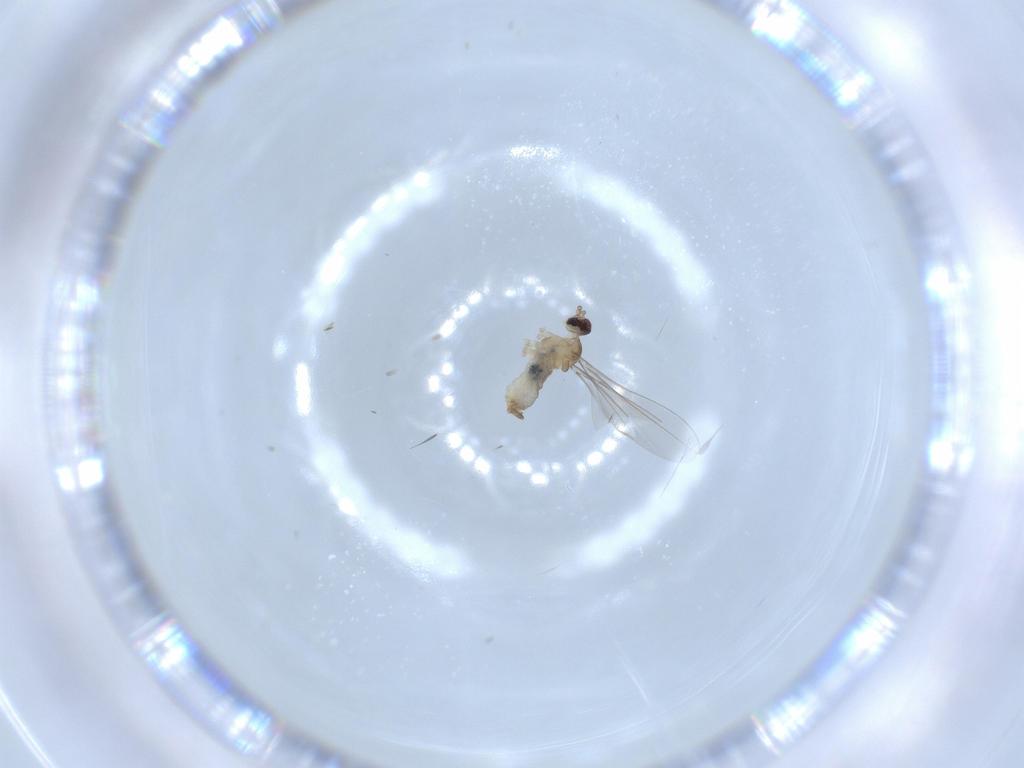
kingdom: Animalia
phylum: Arthropoda
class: Insecta
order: Diptera
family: Cecidomyiidae
